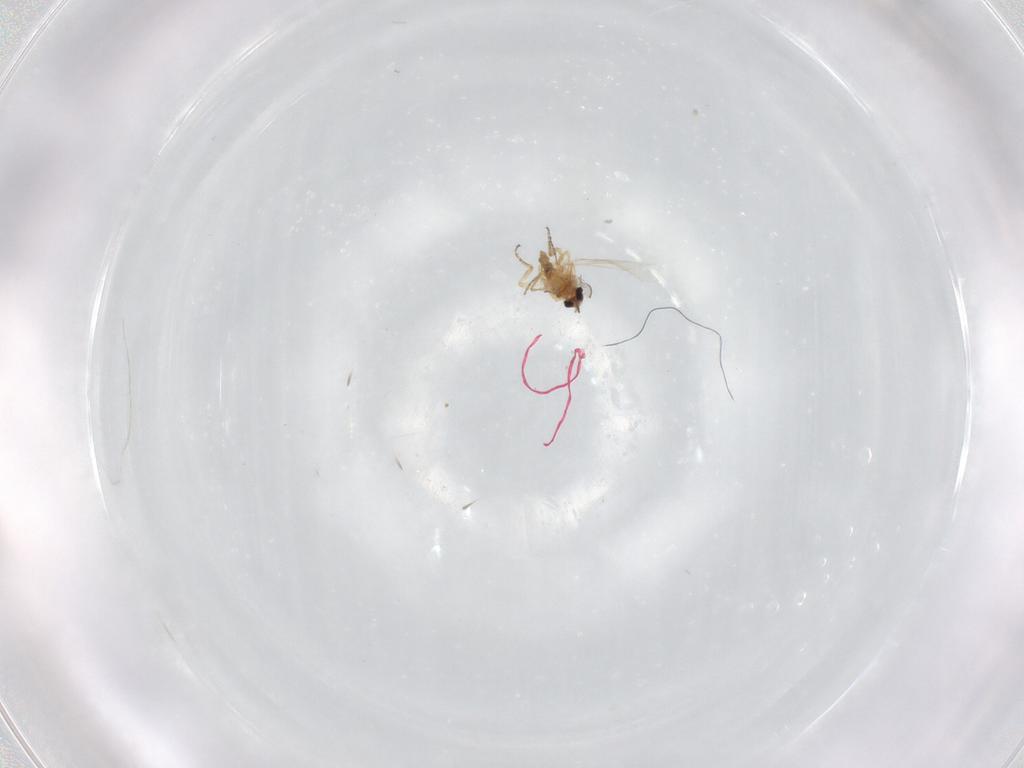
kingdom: Animalia
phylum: Arthropoda
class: Insecta
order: Diptera
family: Ceratopogonidae
